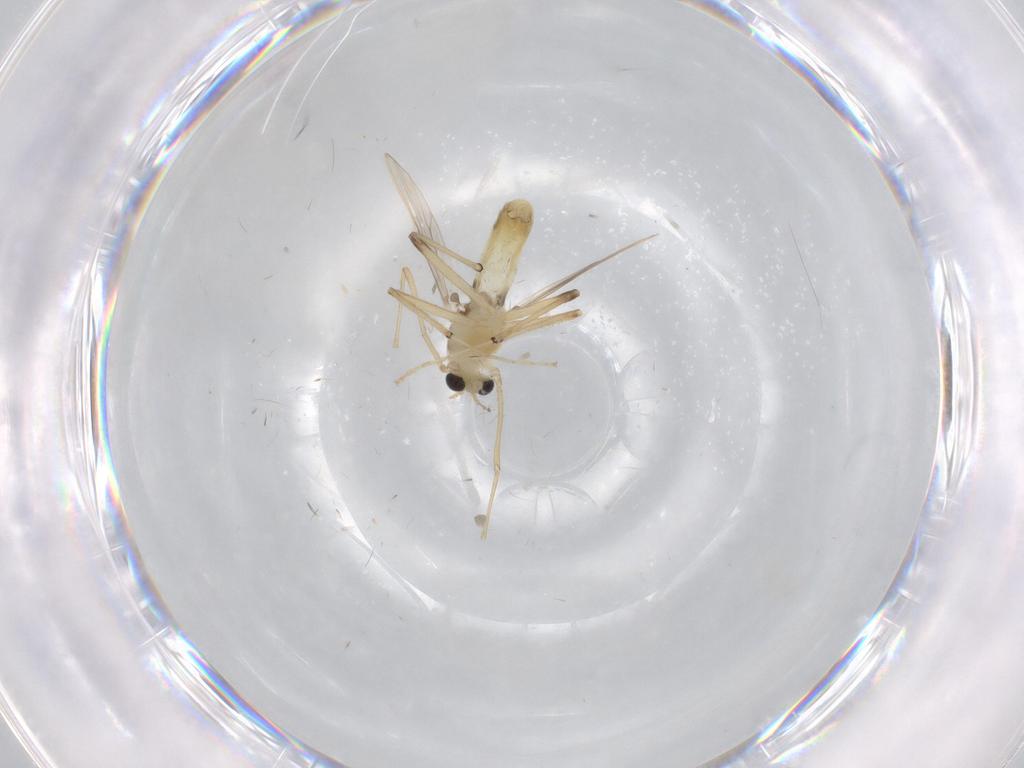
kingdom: Animalia
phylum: Arthropoda
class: Insecta
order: Diptera
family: Chironomidae
